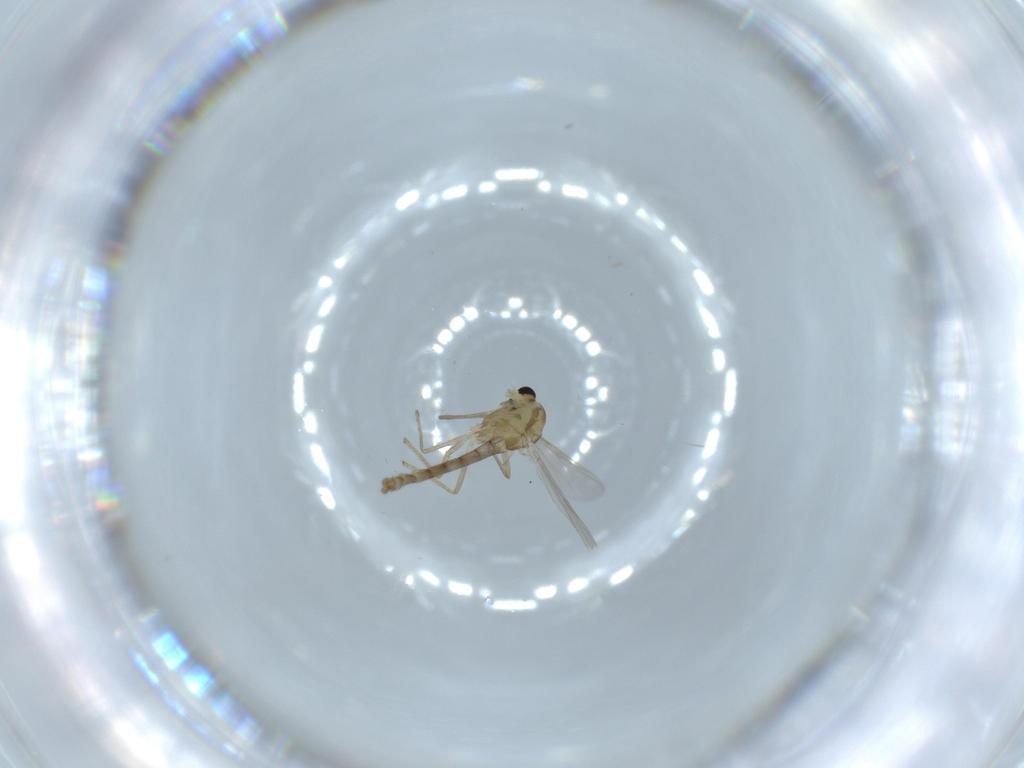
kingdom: Animalia
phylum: Arthropoda
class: Insecta
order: Diptera
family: Chironomidae
